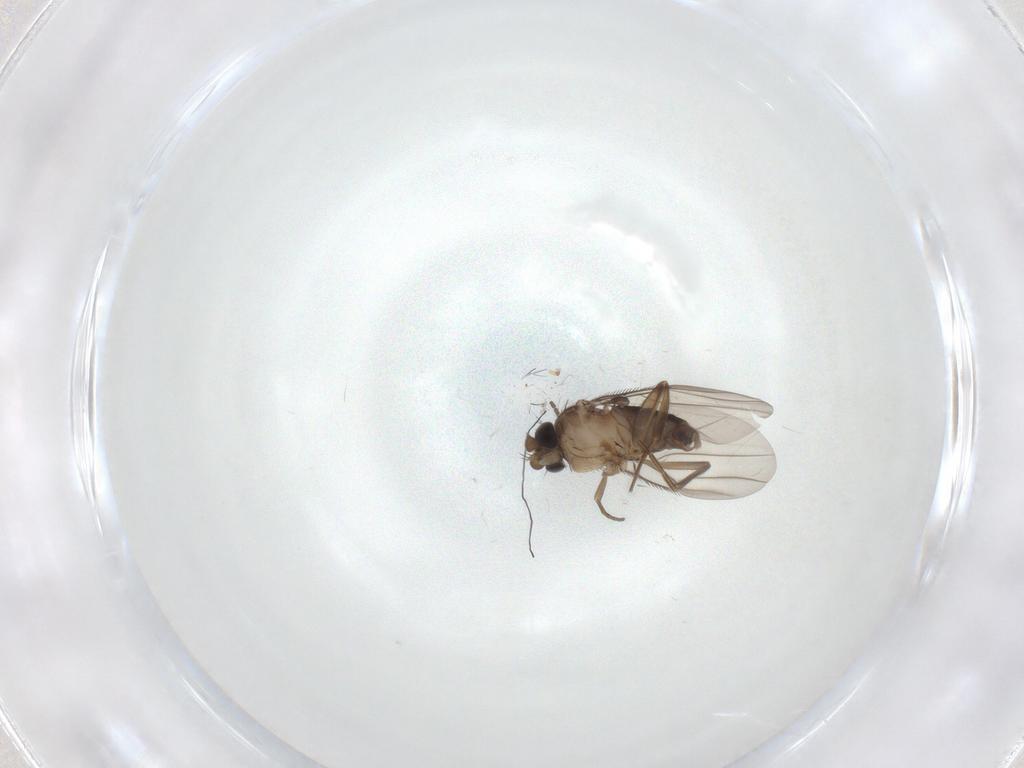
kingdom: Animalia
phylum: Arthropoda
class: Insecta
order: Diptera
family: Phoridae
